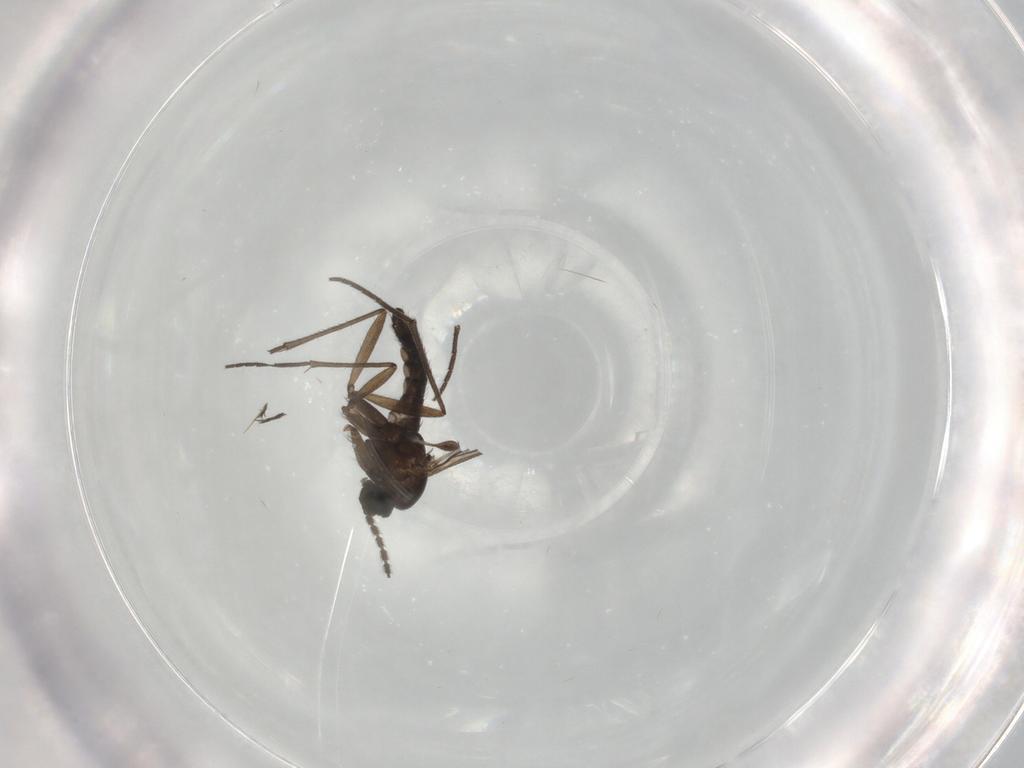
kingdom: Animalia
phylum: Arthropoda
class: Insecta
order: Diptera
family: Sciaridae
